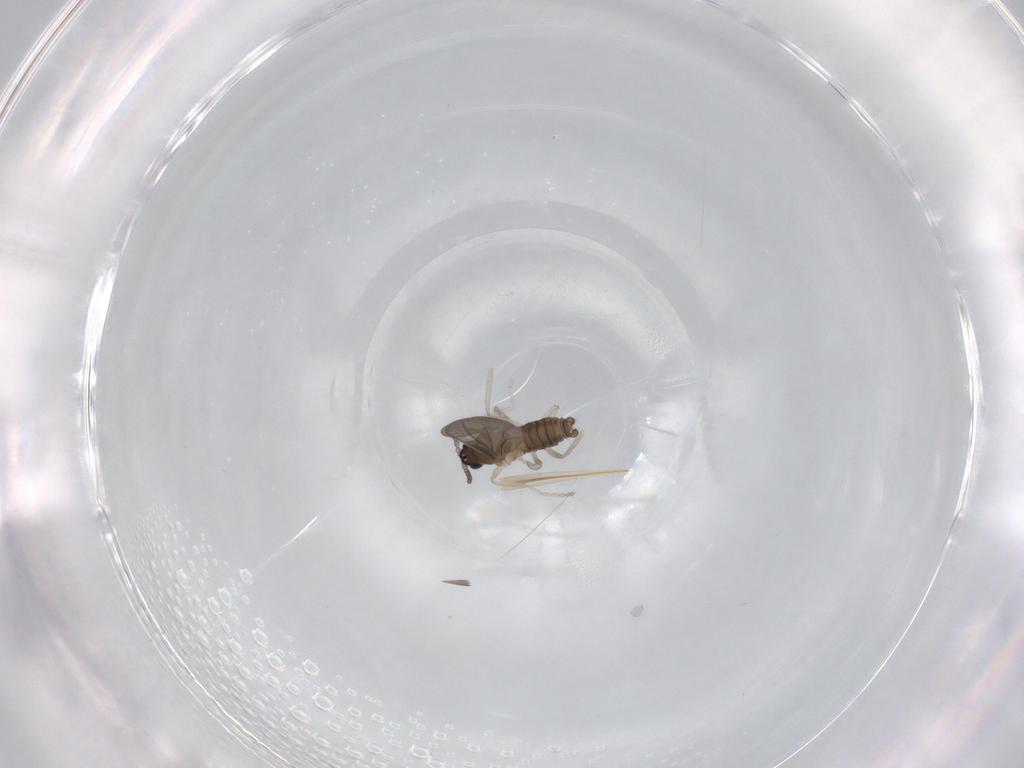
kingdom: Animalia
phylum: Arthropoda
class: Insecta
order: Diptera
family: Cecidomyiidae
